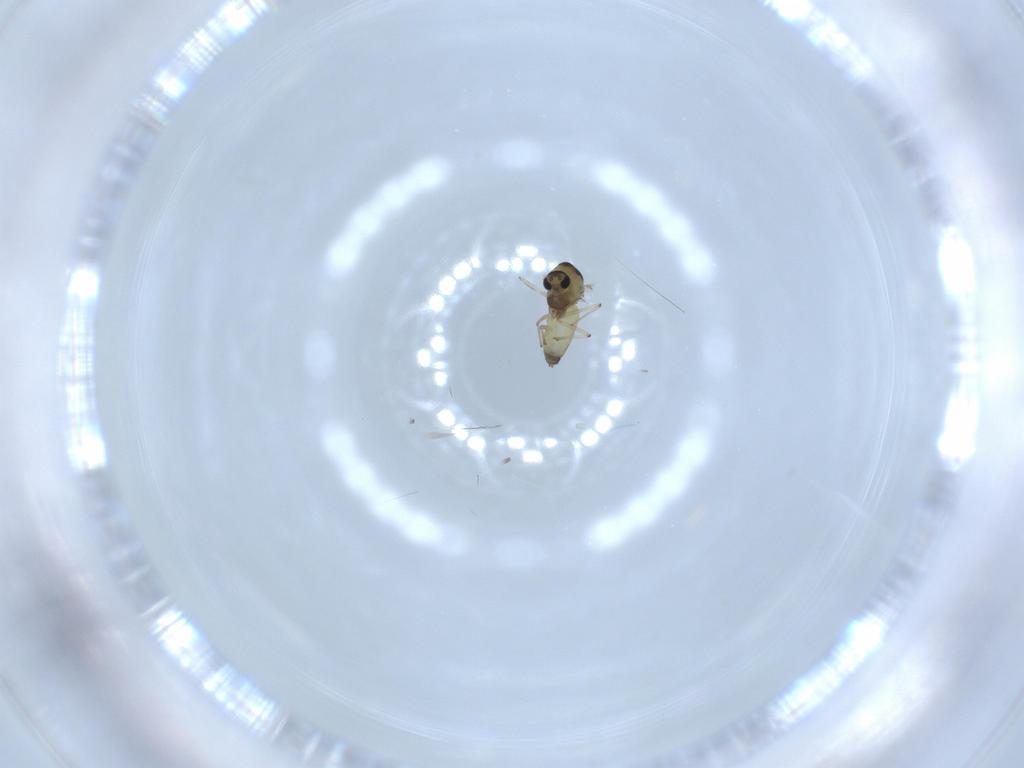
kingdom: Animalia
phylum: Arthropoda
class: Insecta
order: Diptera
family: Chironomidae
